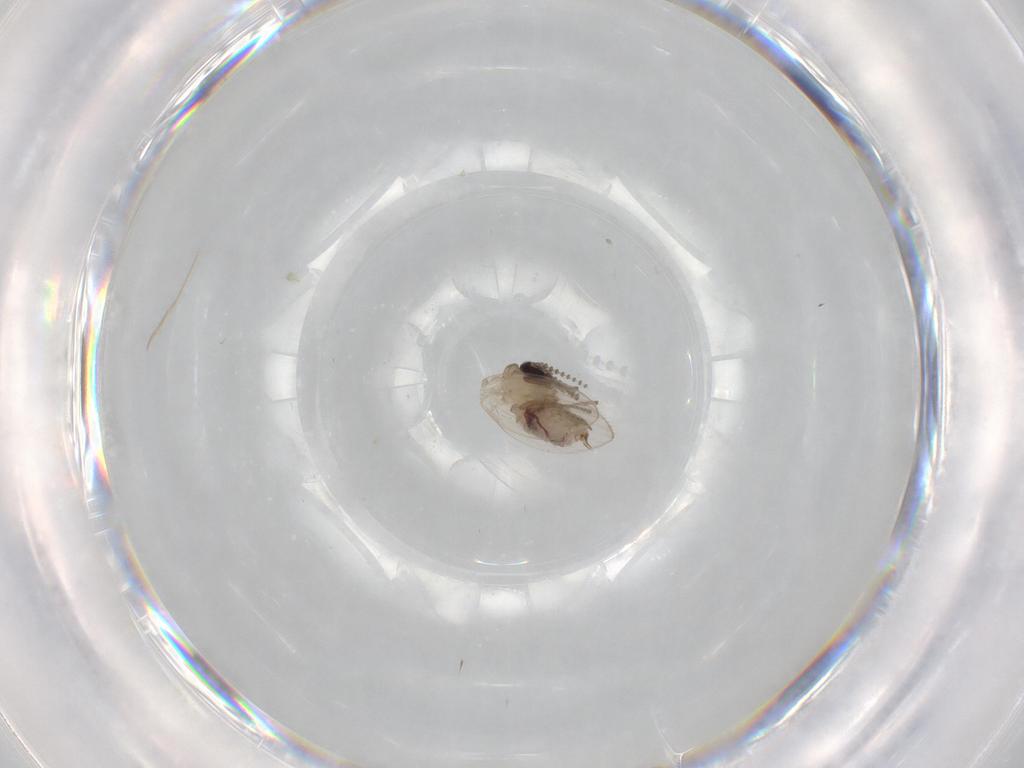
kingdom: Animalia
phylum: Arthropoda
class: Insecta
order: Diptera
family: Psychodidae
